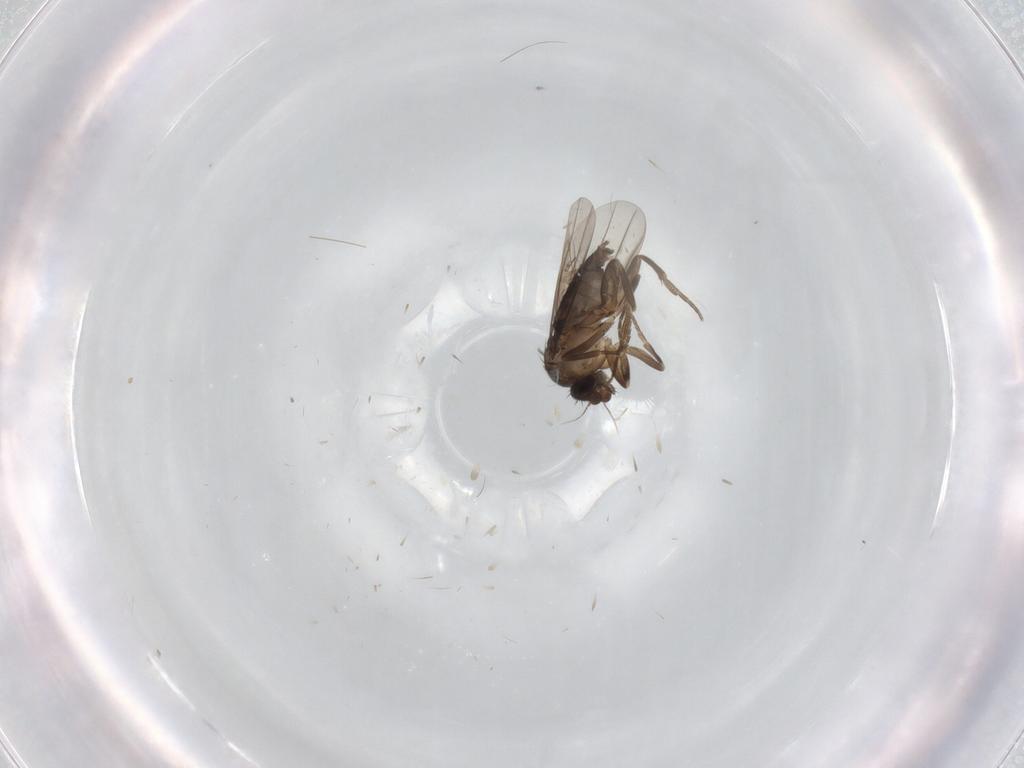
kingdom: Animalia
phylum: Arthropoda
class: Insecta
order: Diptera
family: Phoridae
